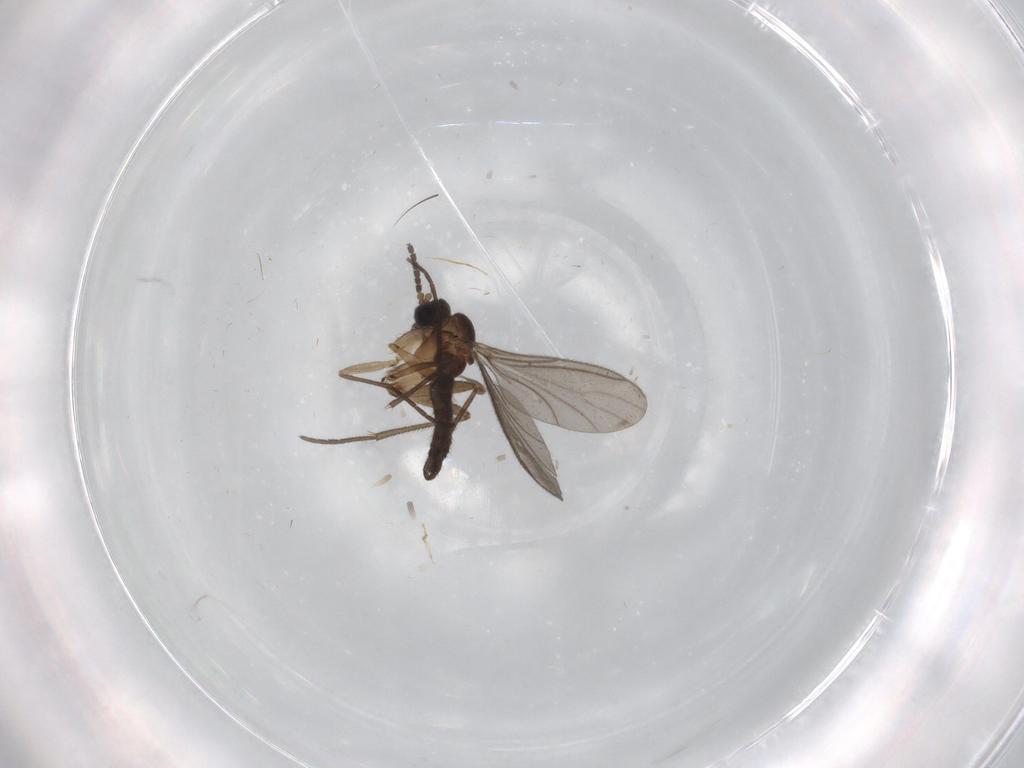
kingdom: Animalia
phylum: Arthropoda
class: Insecta
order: Diptera
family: Sciaridae
